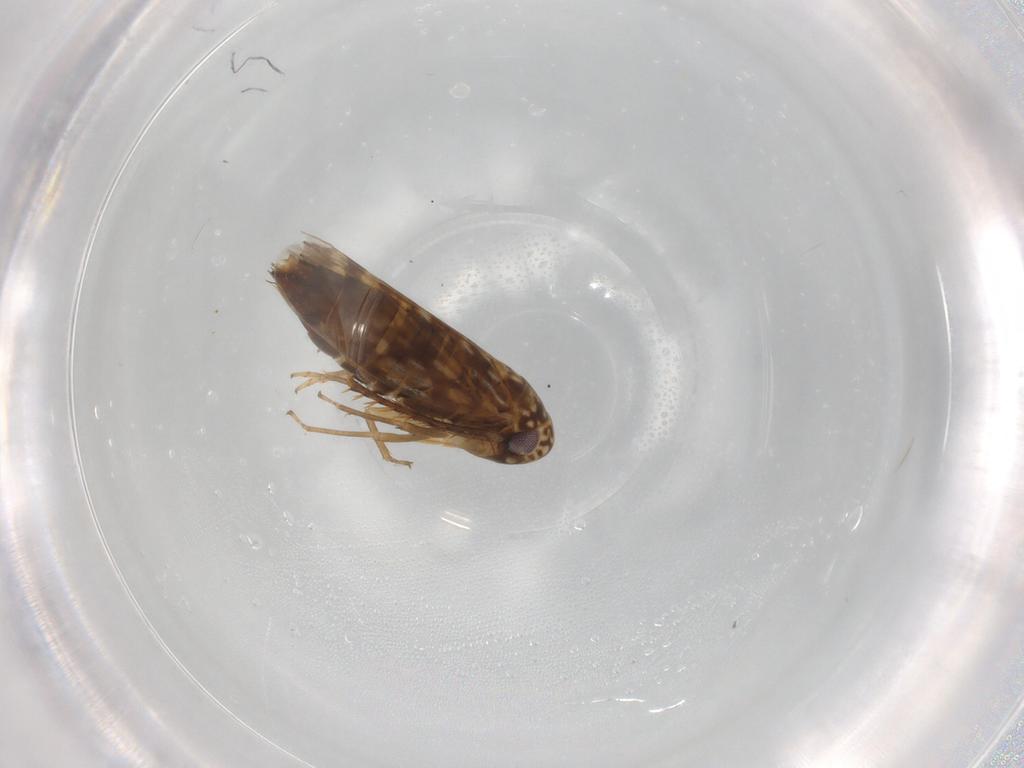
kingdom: Animalia
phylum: Arthropoda
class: Insecta
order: Hemiptera
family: Cicadellidae
